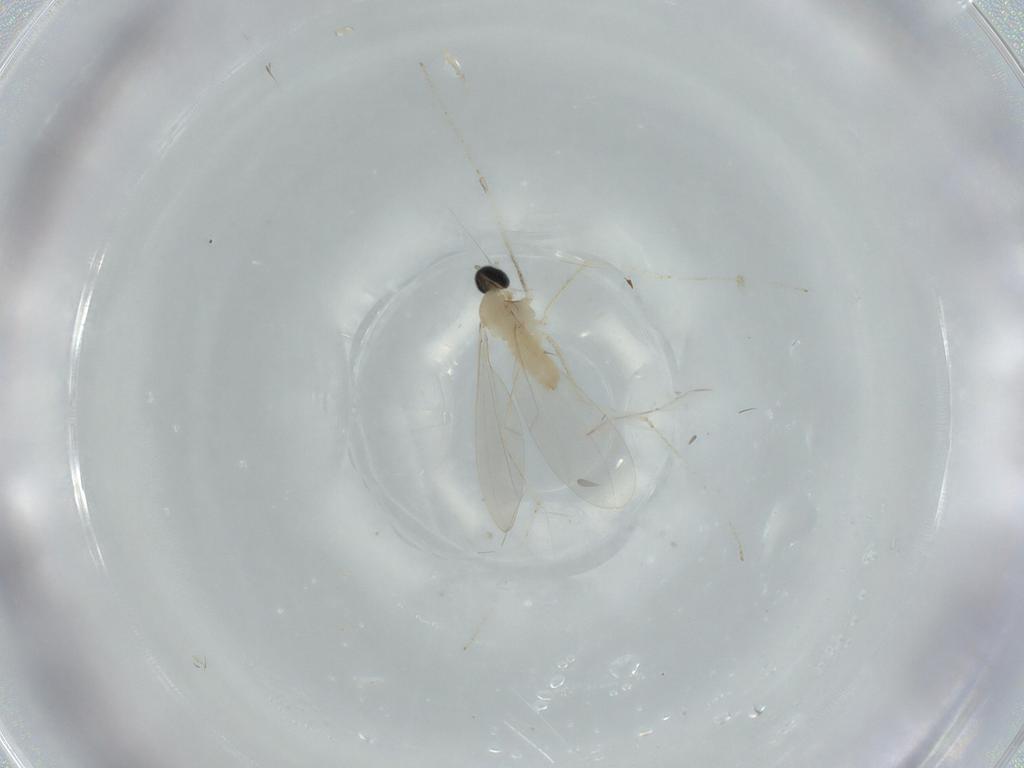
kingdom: Animalia
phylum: Arthropoda
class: Insecta
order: Diptera
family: Cecidomyiidae
